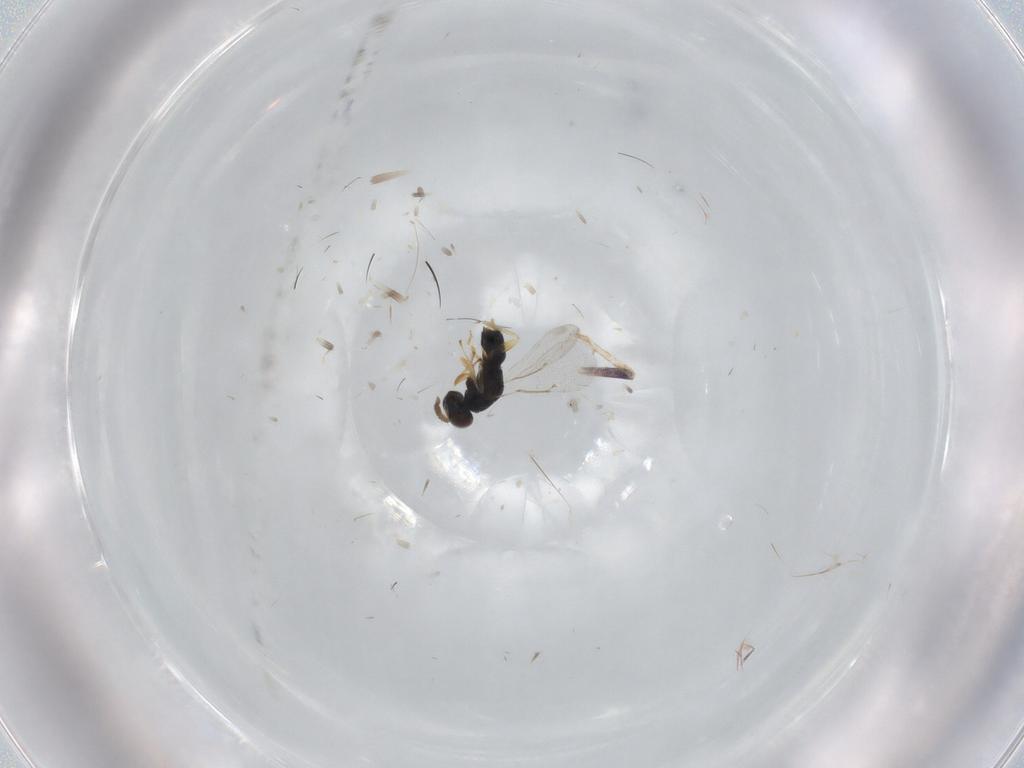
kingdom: Animalia
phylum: Arthropoda
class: Insecta
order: Hymenoptera
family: Eulophidae
